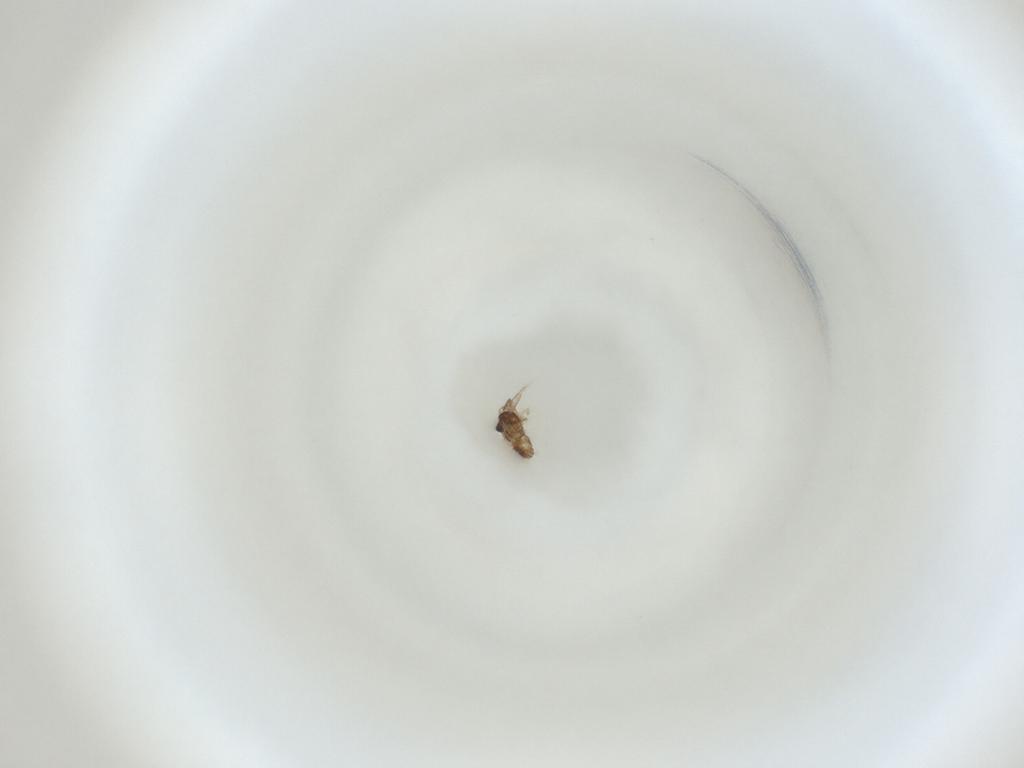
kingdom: Animalia
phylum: Arthropoda
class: Insecta
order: Diptera
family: Cecidomyiidae
